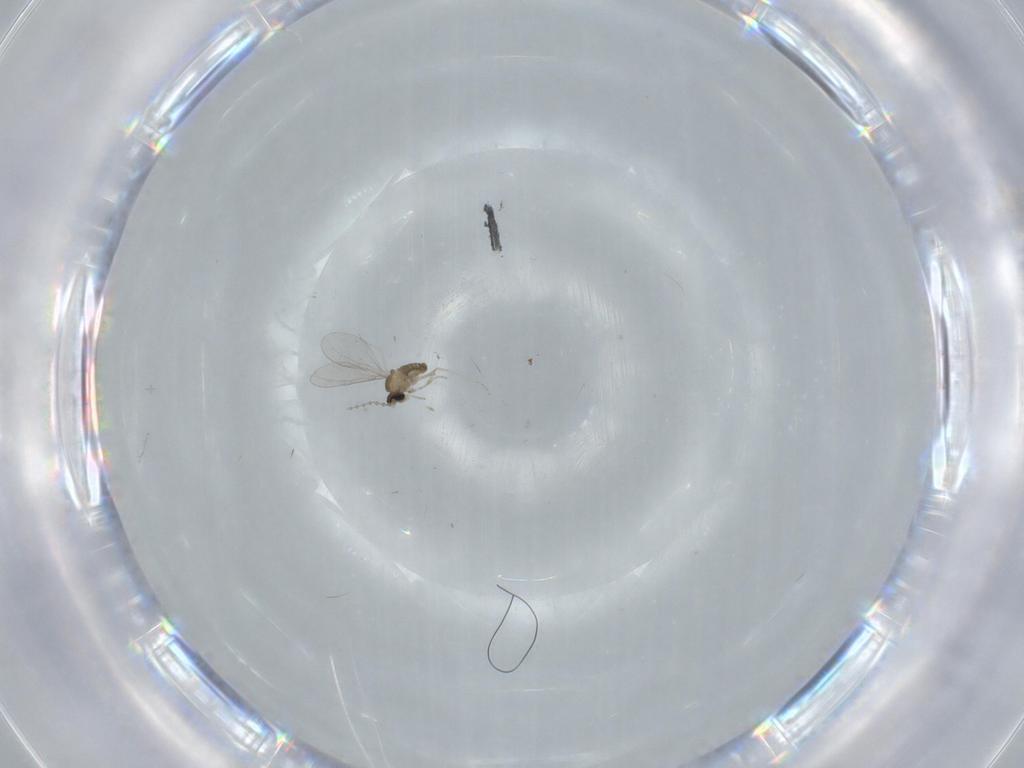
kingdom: Animalia
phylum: Arthropoda
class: Insecta
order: Diptera
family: Cecidomyiidae
